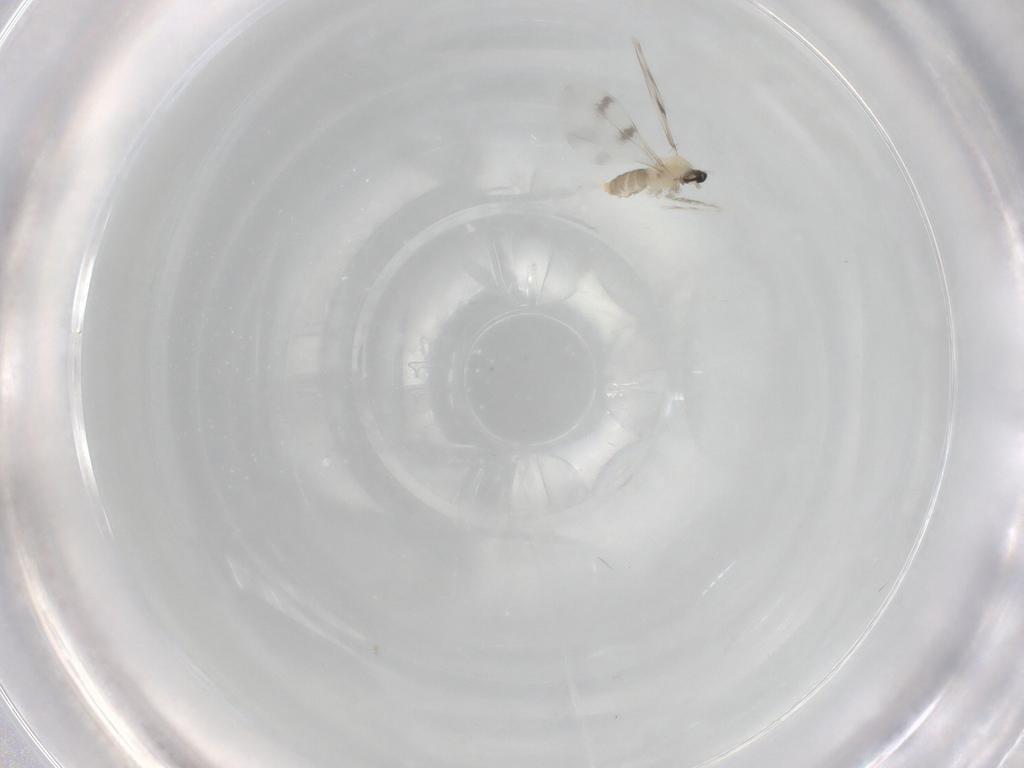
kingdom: Animalia
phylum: Arthropoda
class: Insecta
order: Diptera
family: Cecidomyiidae
